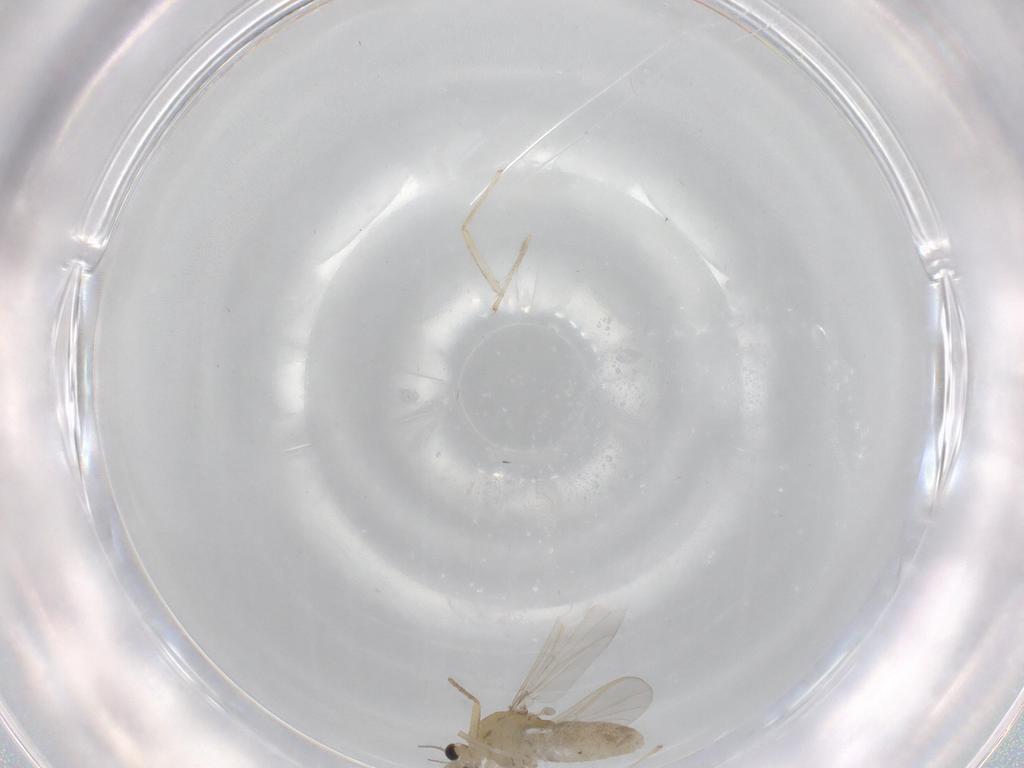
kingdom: Animalia
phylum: Arthropoda
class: Insecta
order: Diptera
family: Chironomidae
